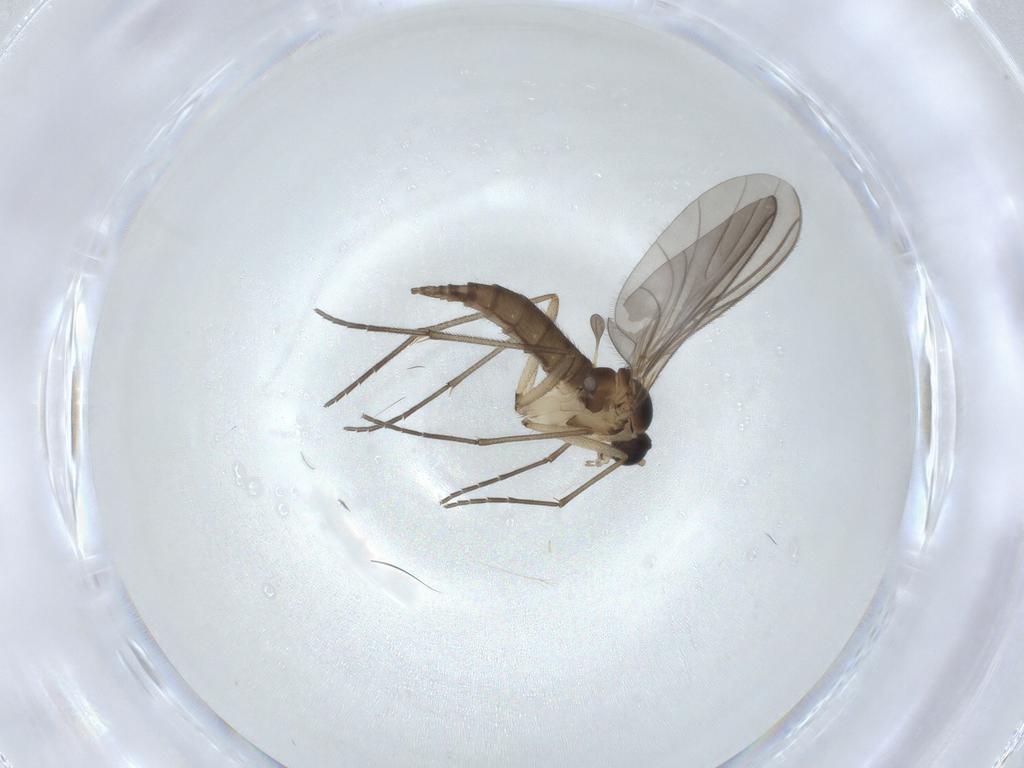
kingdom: Animalia
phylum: Arthropoda
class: Insecta
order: Diptera
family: Sciaridae
